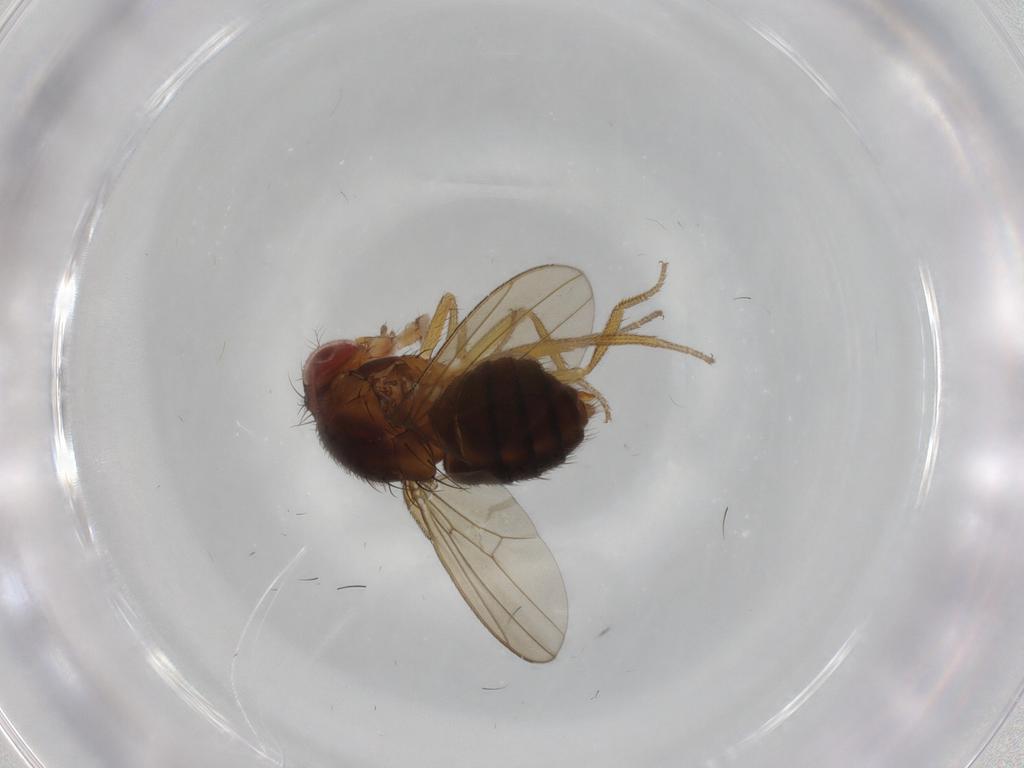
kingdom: Animalia
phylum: Arthropoda
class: Insecta
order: Diptera
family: Drosophilidae
